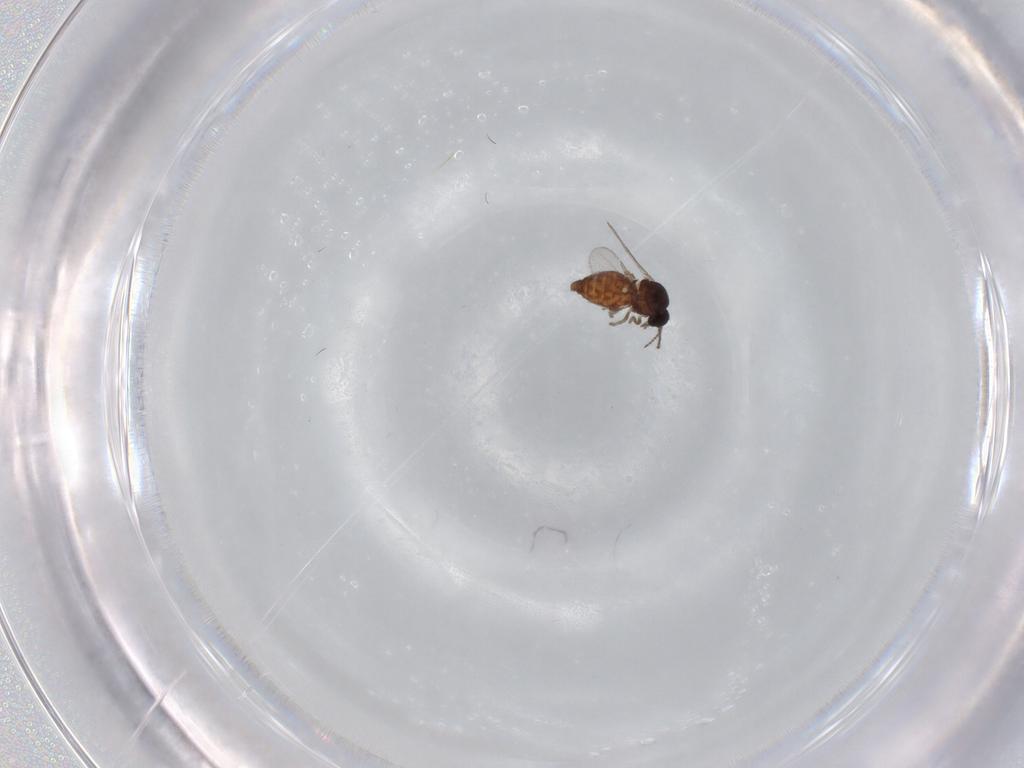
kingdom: Animalia
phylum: Arthropoda
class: Insecta
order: Diptera
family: Ceratopogonidae
